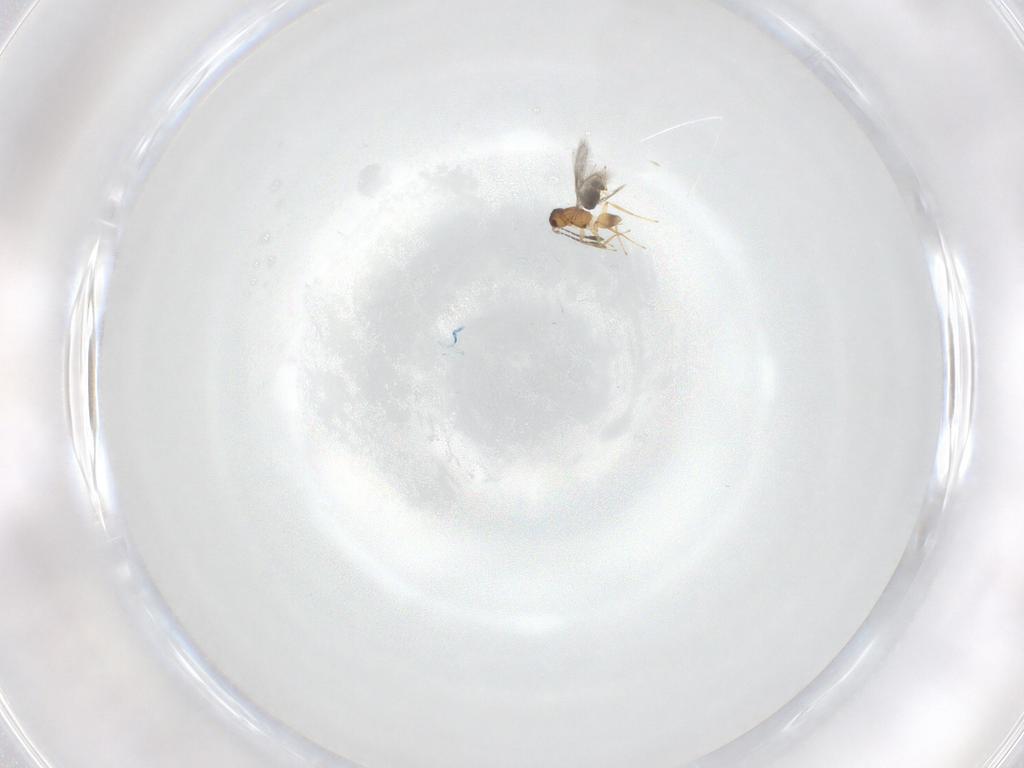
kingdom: Animalia
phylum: Arthropoda
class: Insecta
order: Hymenoptera
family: Mymaridae
